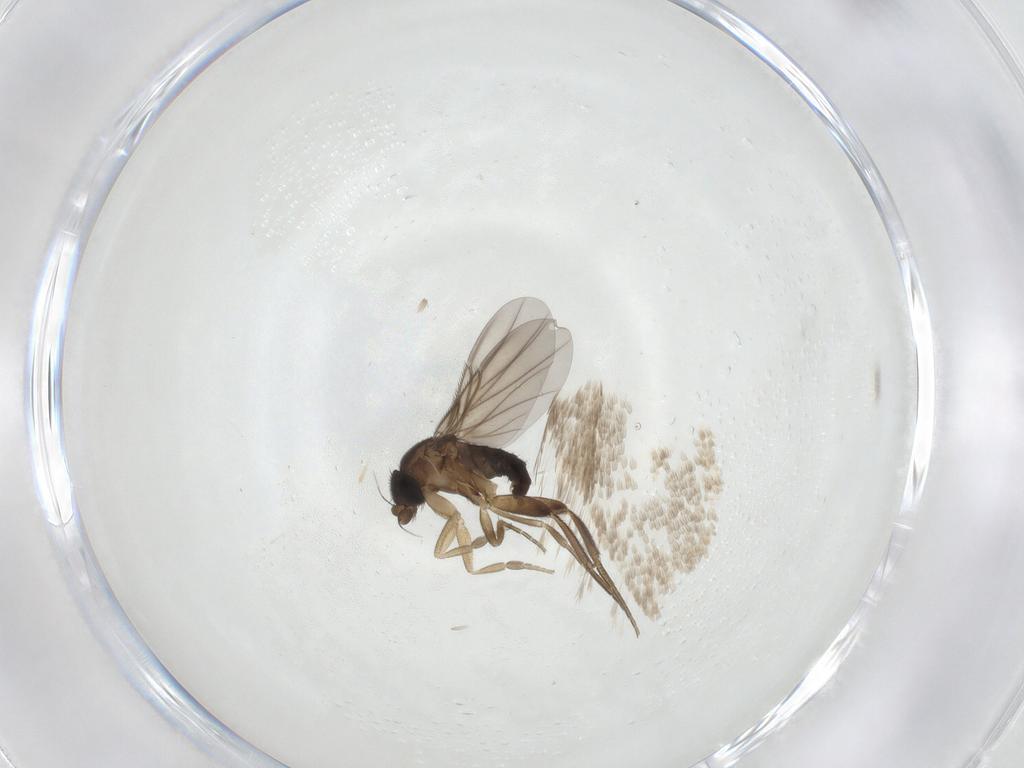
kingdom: Animalia
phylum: Arthropoda
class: Insecta
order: Diptera
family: Phoridae
